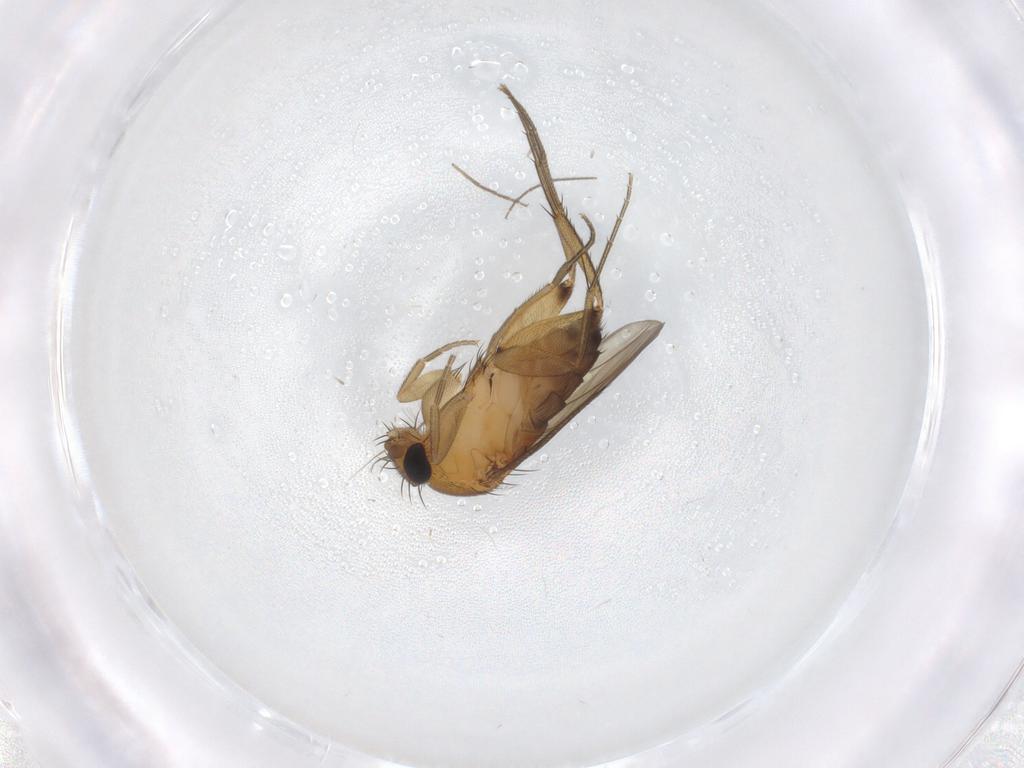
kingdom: Animalia
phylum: Arthropoda
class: Insecta
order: Diptera
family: Phoridae
